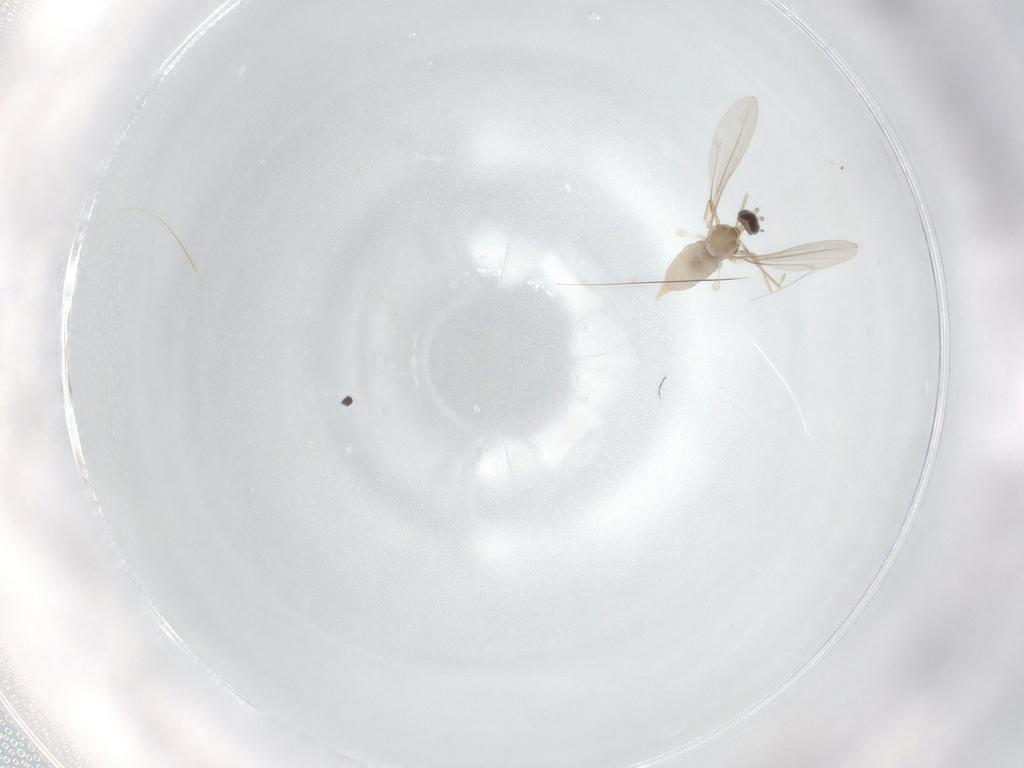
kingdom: Animalia
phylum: Arthropoda
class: Insecta
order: Diptera
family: Cecidomyiidae
